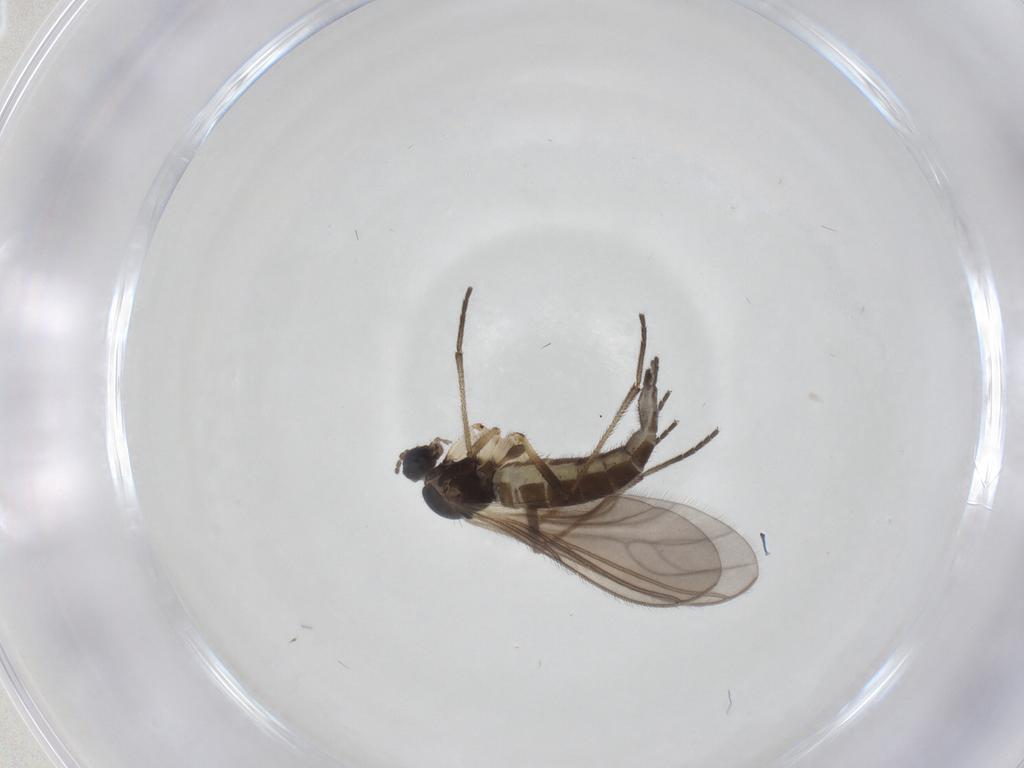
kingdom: Animalia
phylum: Arthropoda
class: Insecta
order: Diptera
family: Sciaridae
